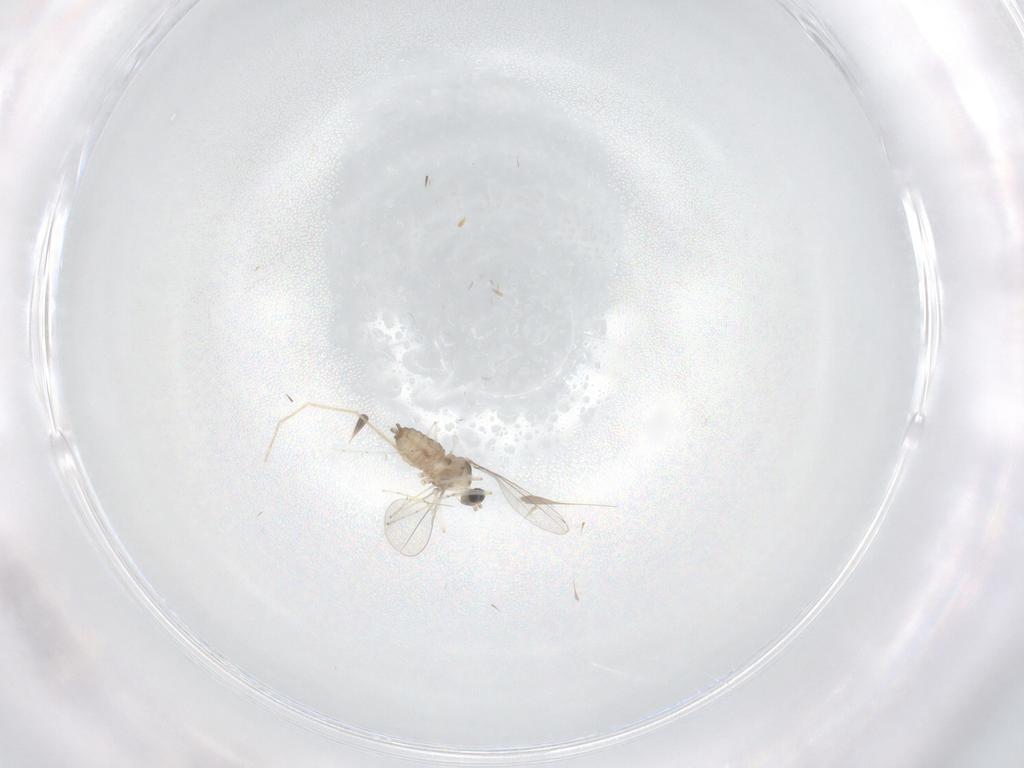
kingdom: Animalia
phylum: Arthropoda
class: Insecta
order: Diptera
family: Cecidomyiidae
